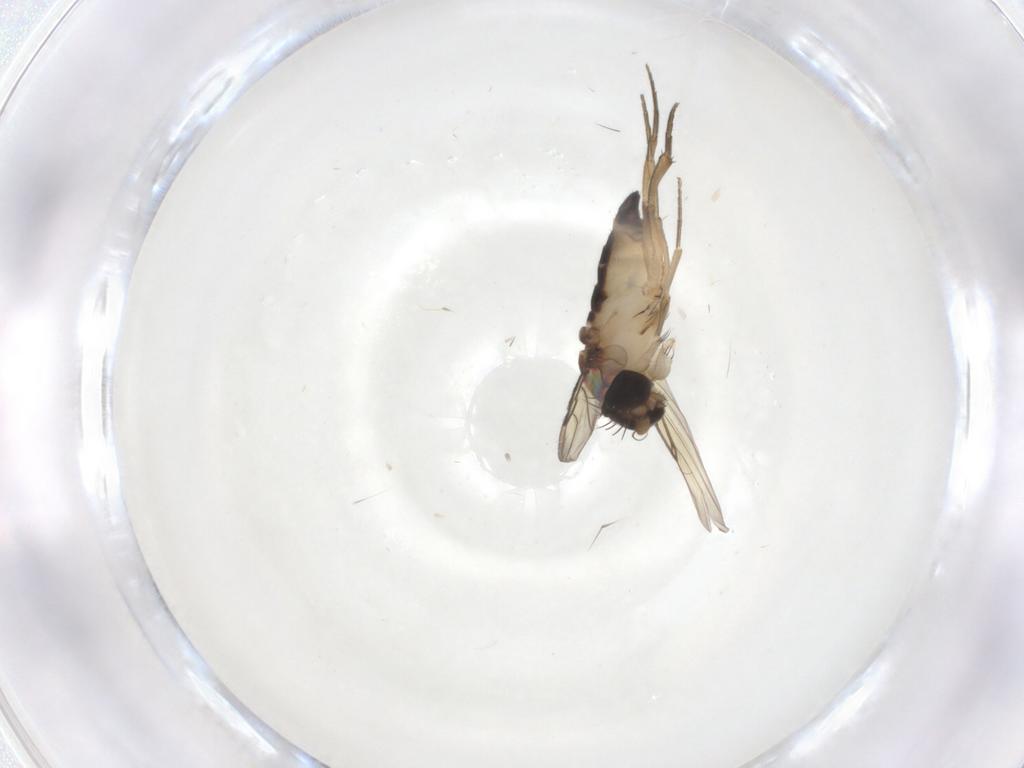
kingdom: Animalia
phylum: Arthropoda
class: Insecta
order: Diptera
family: Phoridae
